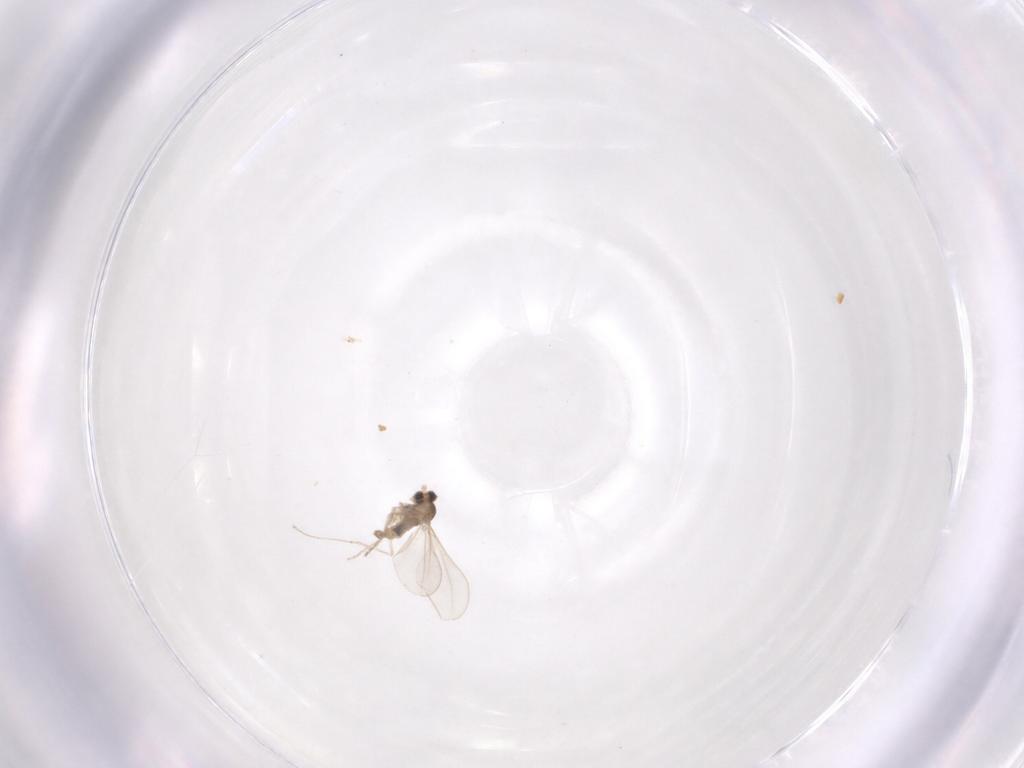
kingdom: Animalia
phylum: Arthropoda
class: Insecta
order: Diptera
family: Cecidomyiidae
